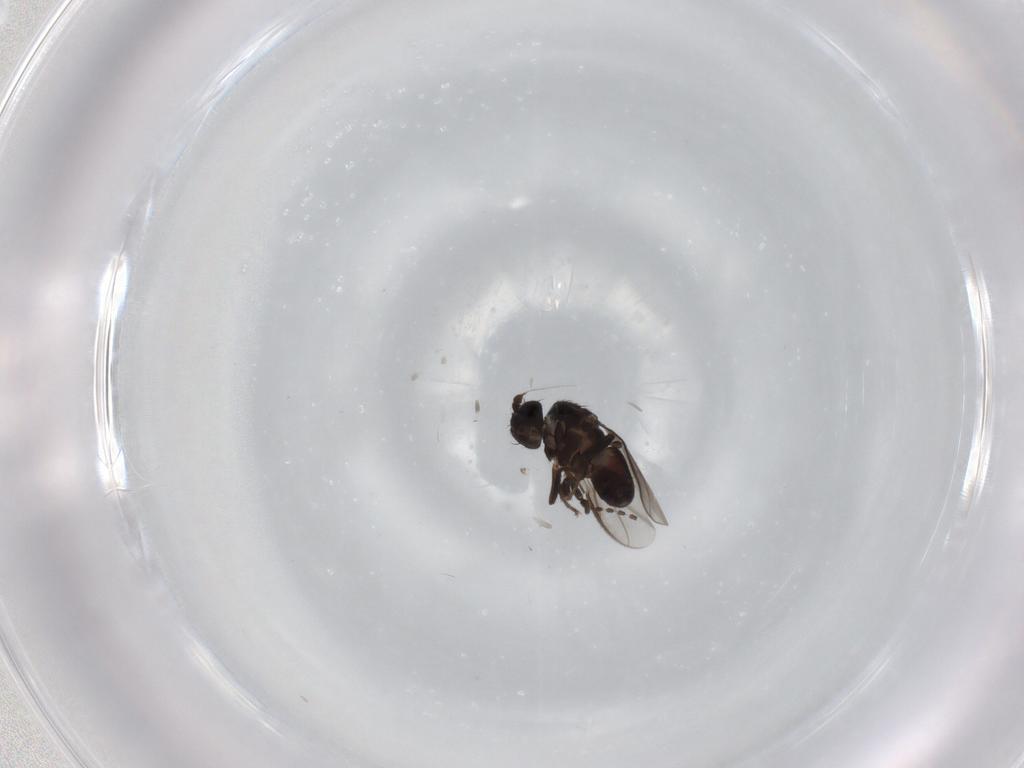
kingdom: Animalia
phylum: Arthropoda
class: Insecta
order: Diptera
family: Phoridae
